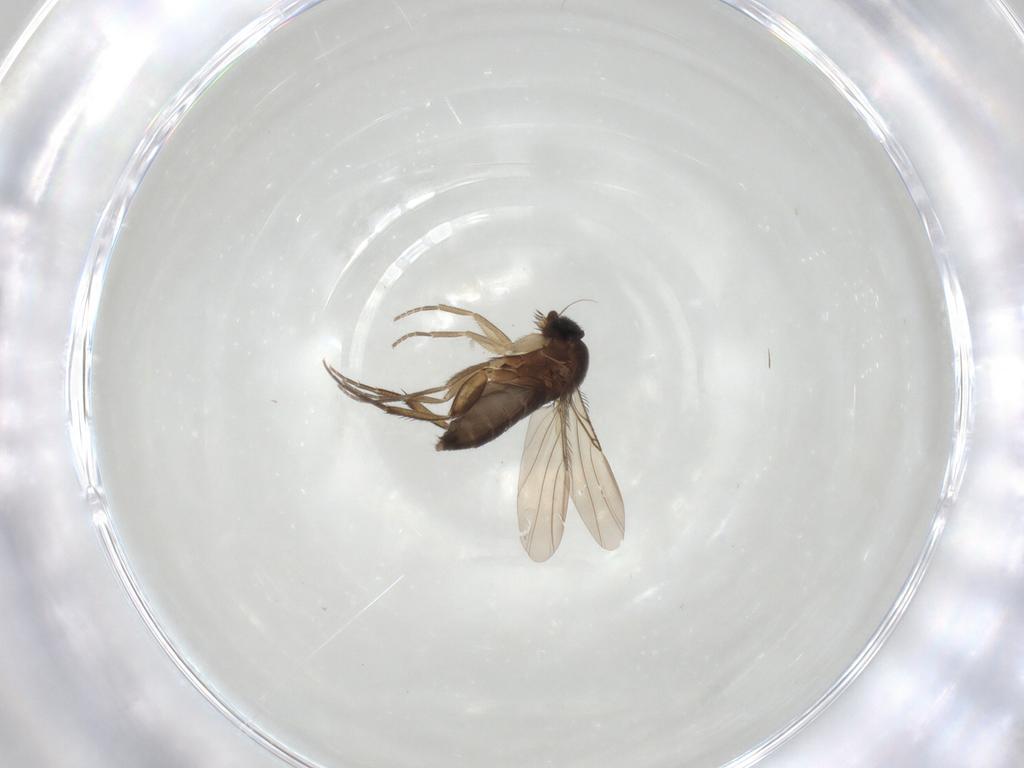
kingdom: Animalia
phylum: Arthropoda
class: Insecta
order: Diptera
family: Phoridae
